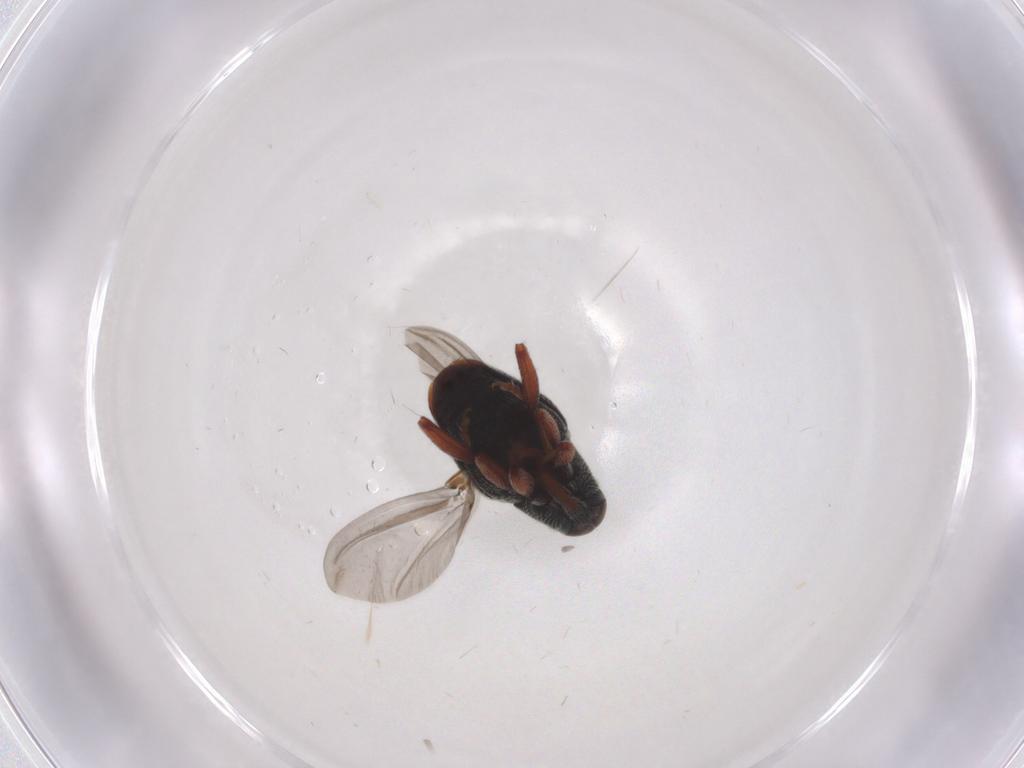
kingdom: Animalia
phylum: Arthropoda
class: Insecta
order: Coleoptera
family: Curculionidae
